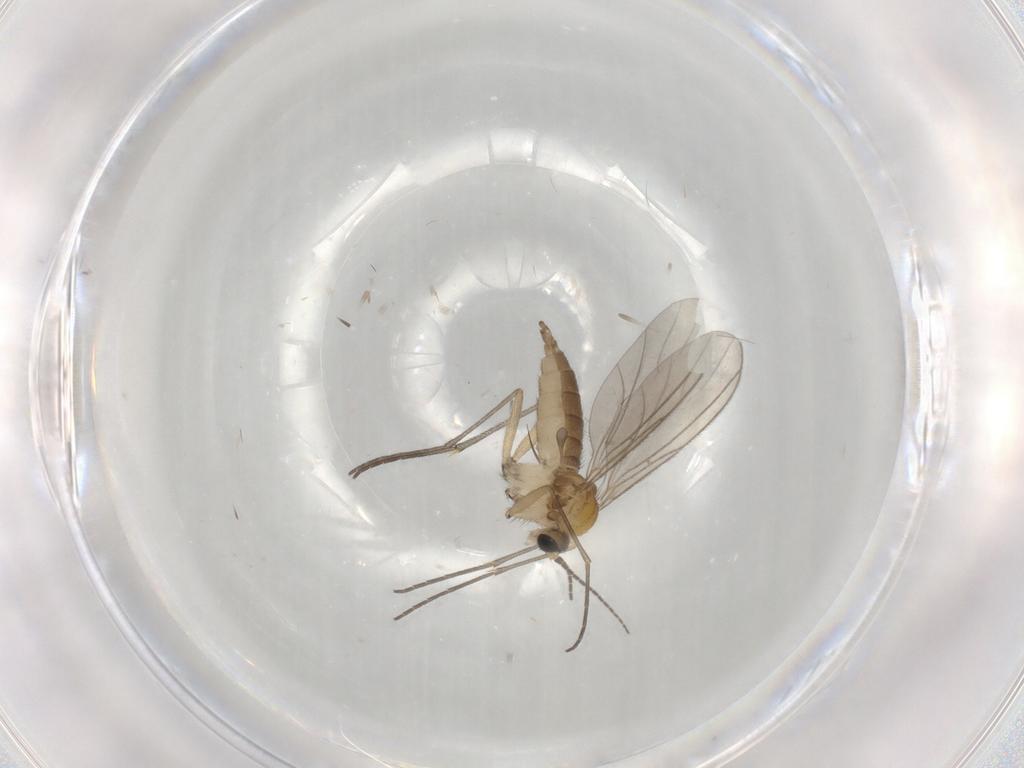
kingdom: Animalia
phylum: Arthropoda
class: Insecta
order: Diptera
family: Sciaridae
